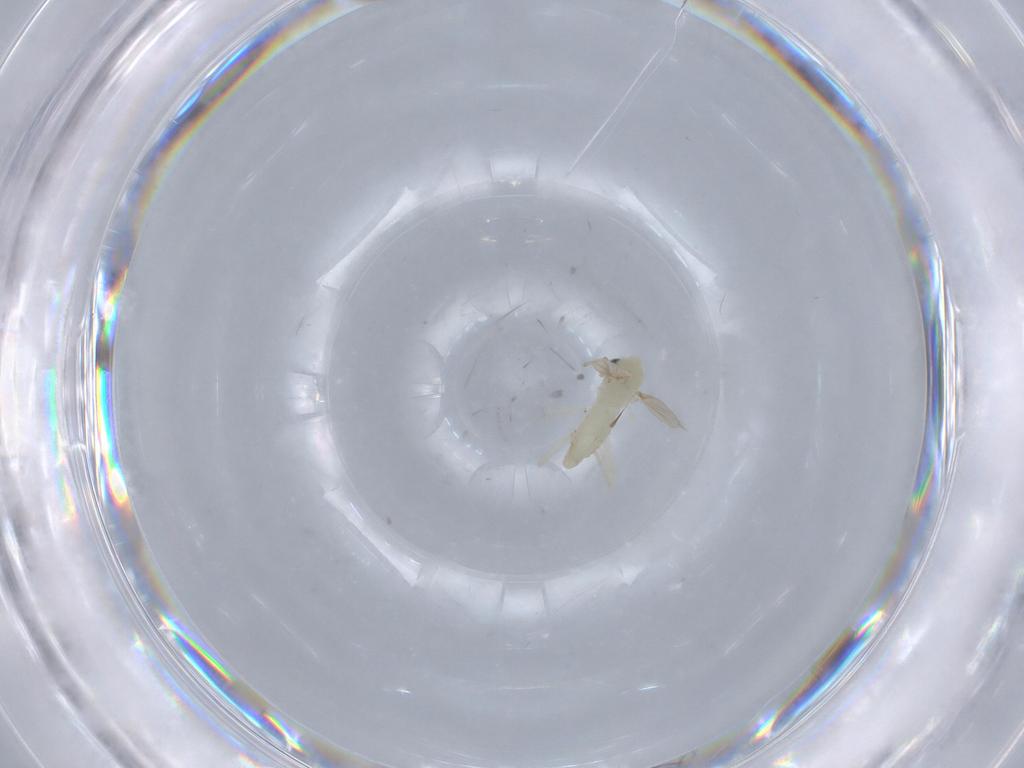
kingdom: Animalia
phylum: Arthropoda
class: Insecta
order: Diptera
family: Chironomidae
